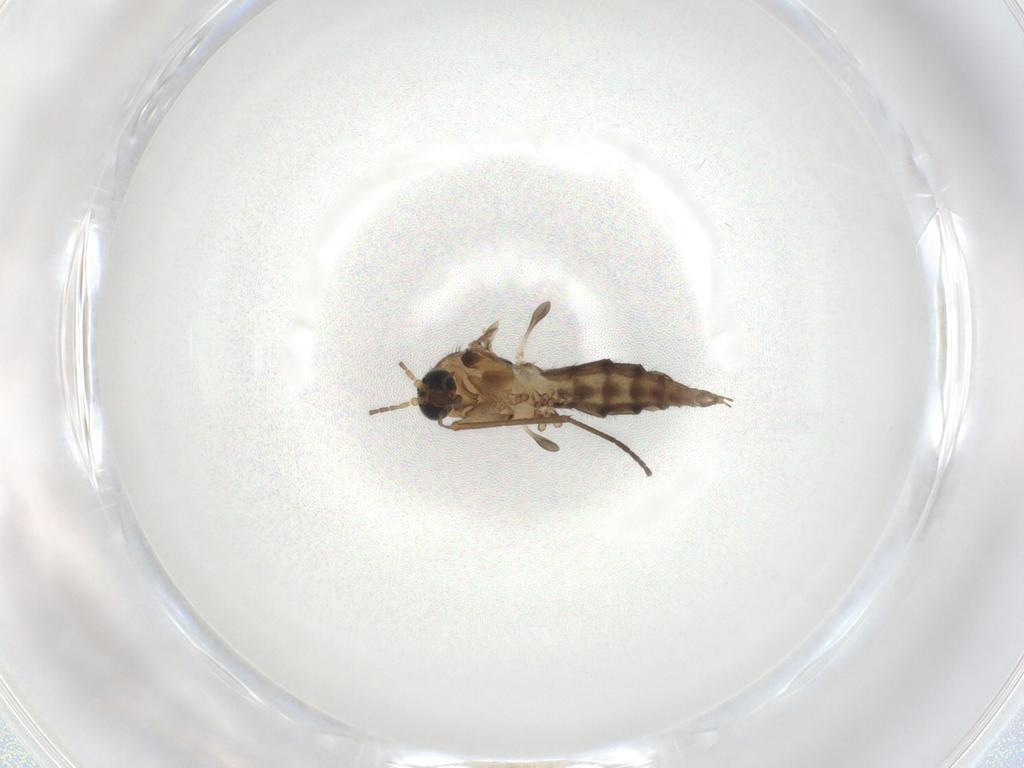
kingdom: Animalia
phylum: Arthropoda
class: Insecta
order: Diptera
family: Sciaridae
